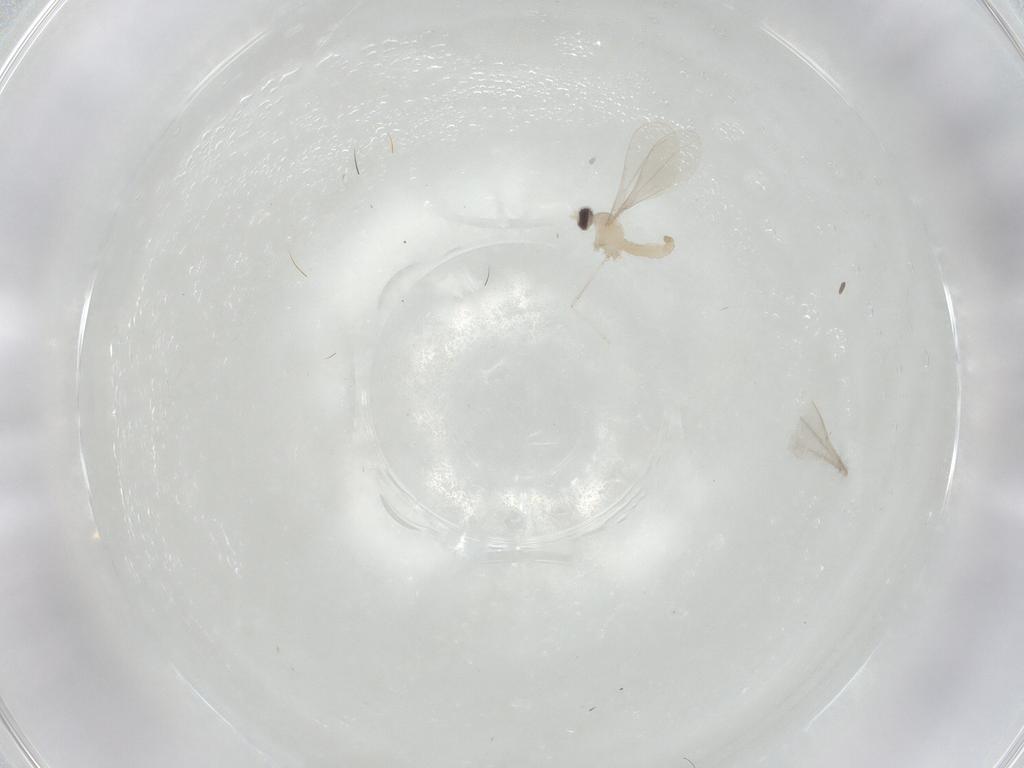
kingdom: Animalia
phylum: Arthropoda
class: Insecta
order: Diptera
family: Cecidomyiidae
